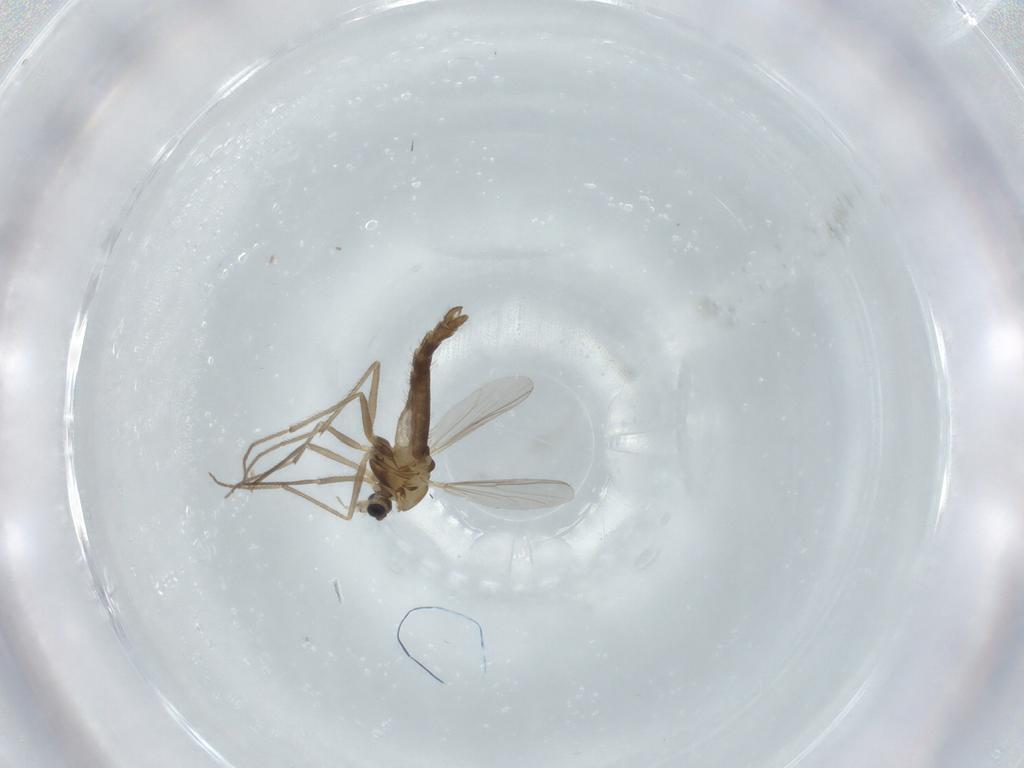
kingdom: Animalia
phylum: Arthropoda
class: Insecta
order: Diptera
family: Chironomidae
